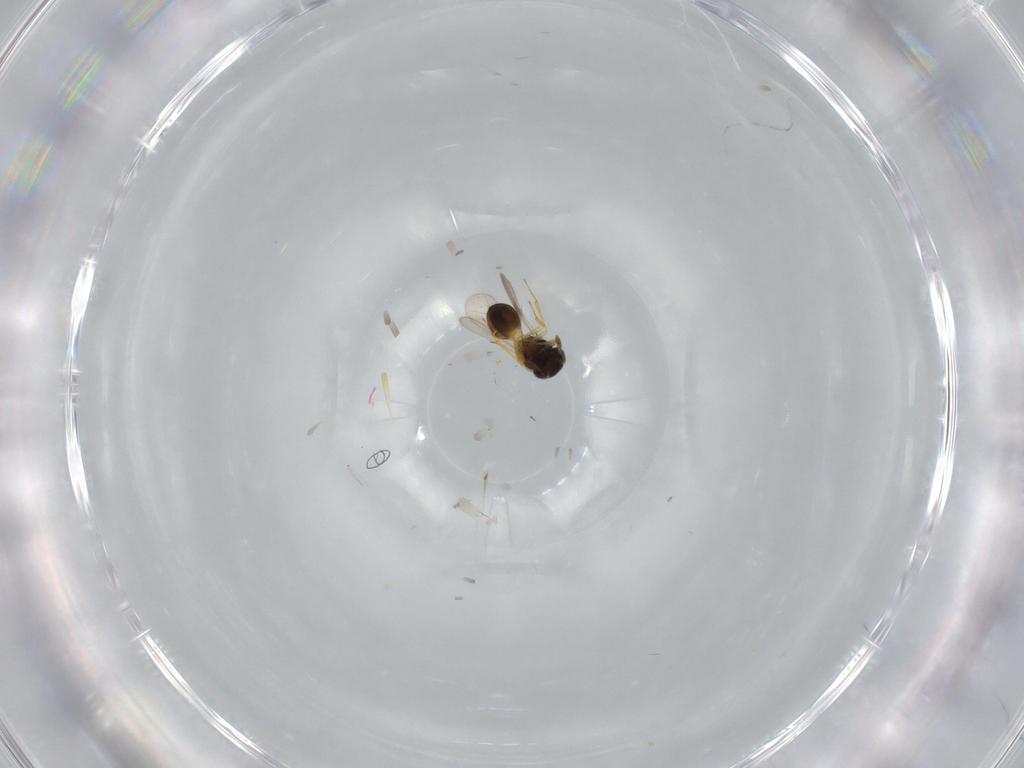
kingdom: Animalia
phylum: Arthropoda
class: Insecta
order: Hymenoptera
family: Scelionidae
